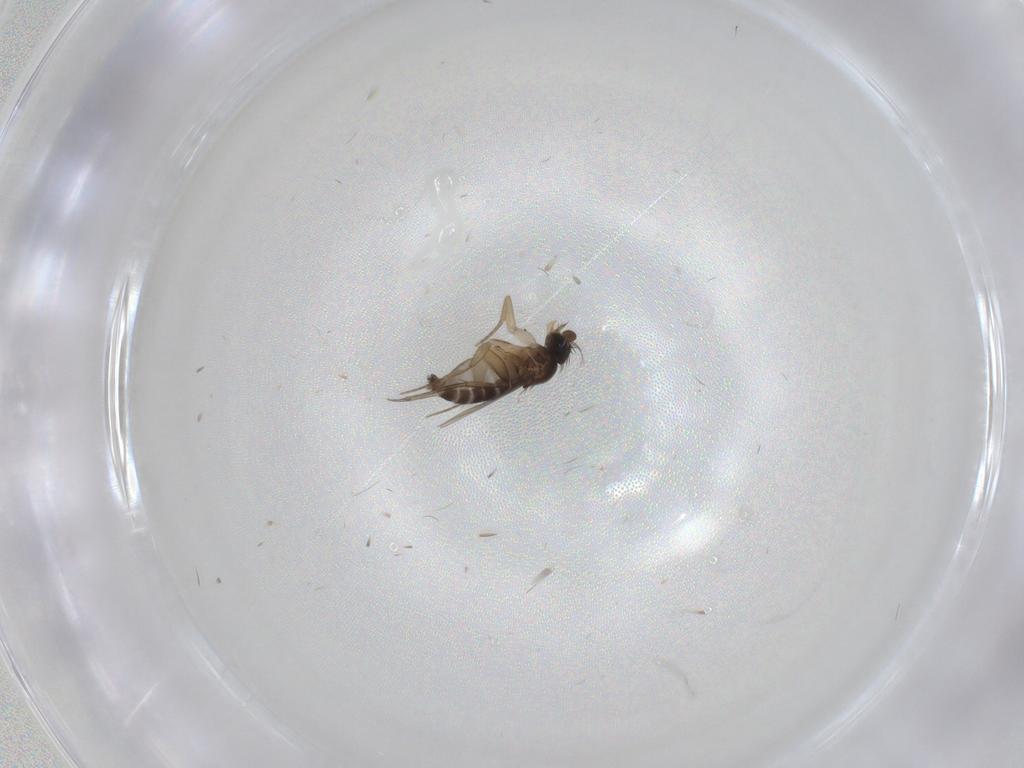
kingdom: Animalia
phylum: Arthropoda
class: Insecta
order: Diptera
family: Phoridae
